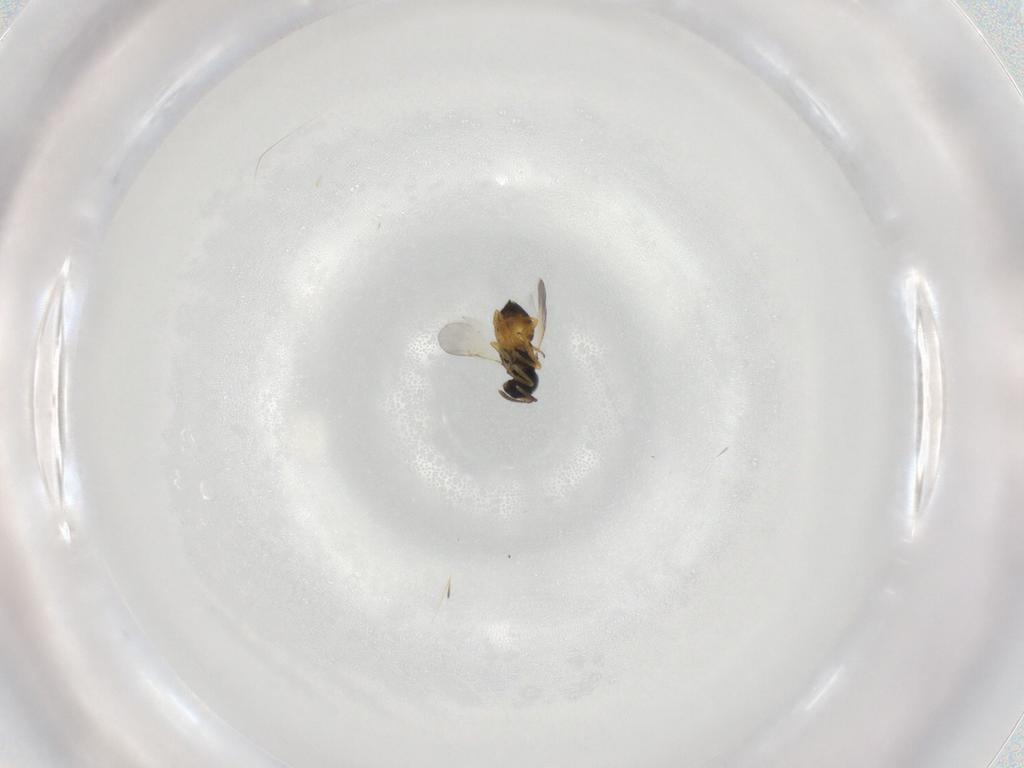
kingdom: Animalia
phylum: Arthropoda
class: Insecta
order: Hymenoptera
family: Encyrtidae
